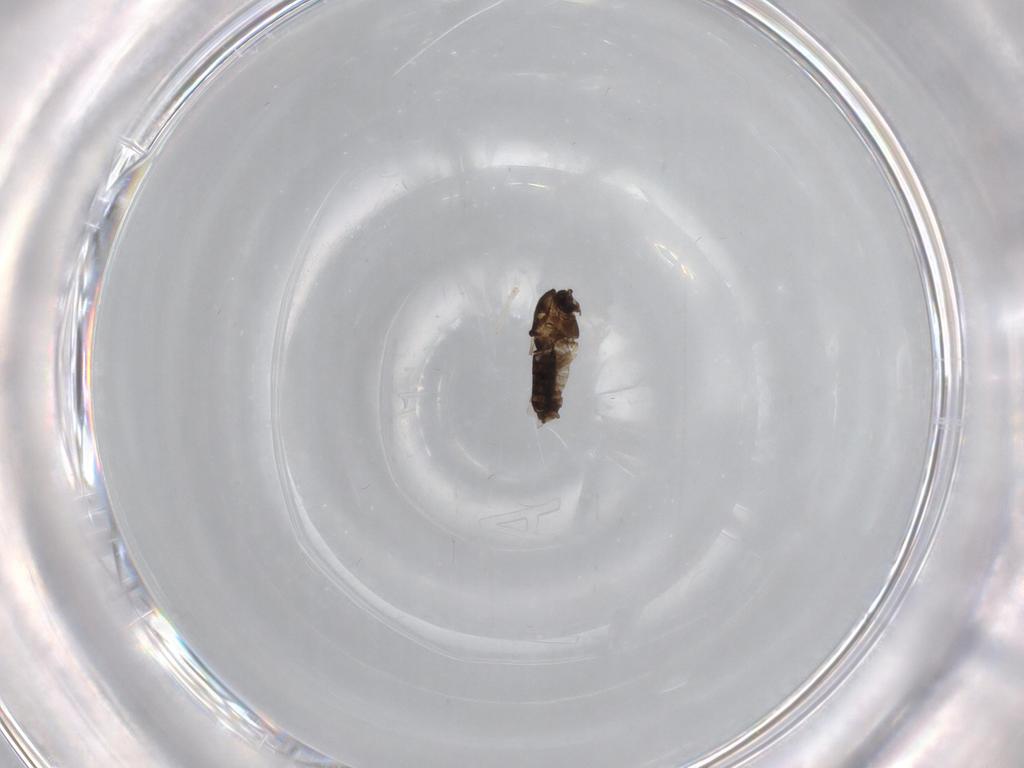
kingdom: Animalia
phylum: Arthropoda
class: Insecta
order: Diptera
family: Chironomidae
